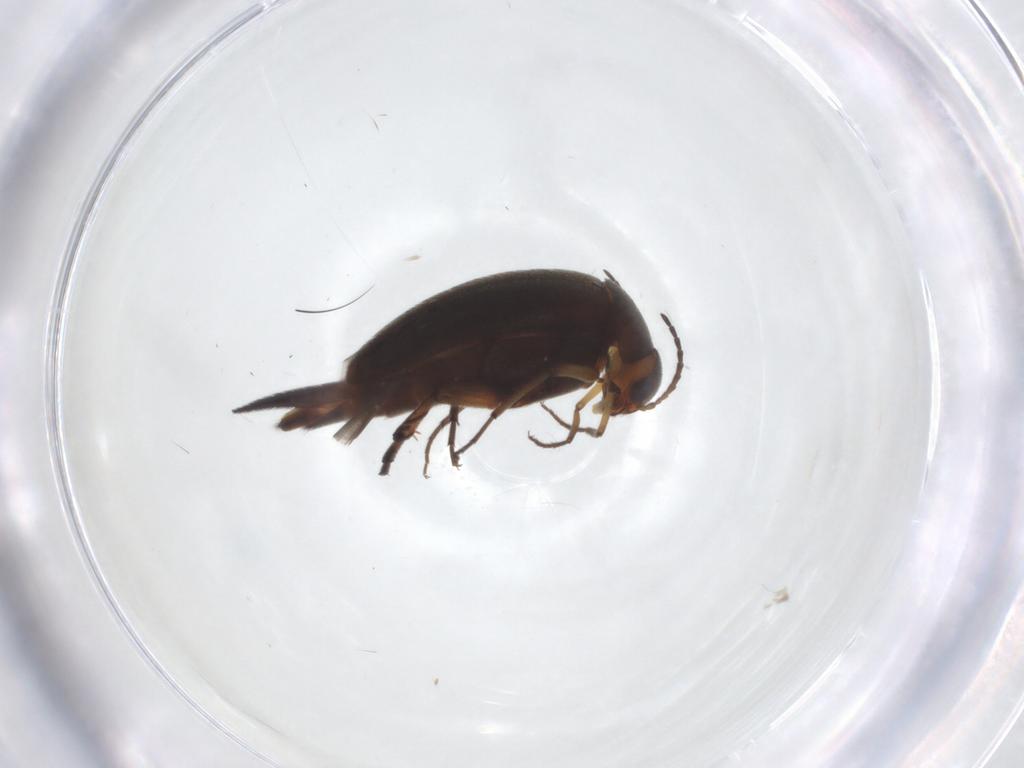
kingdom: Animalia
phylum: Arthropoda
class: Insecta
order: Coleoptera
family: Mordellidae
